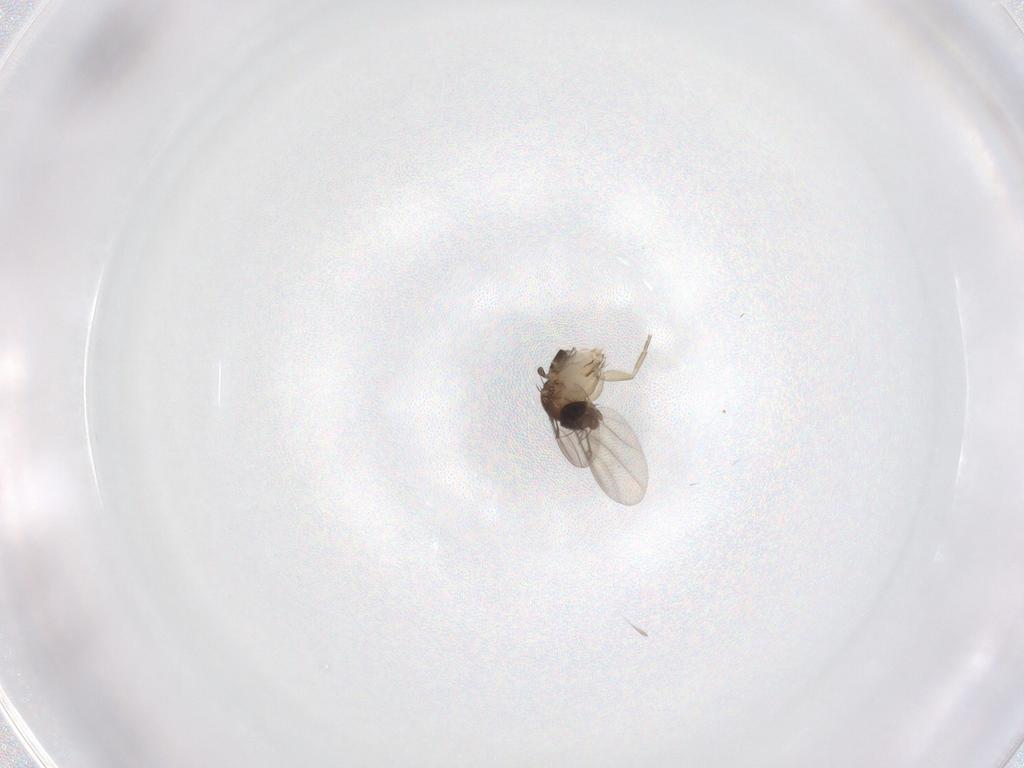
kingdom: Animalia
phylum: Arthropoda
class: Insecta
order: Diptera
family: Phoridae
